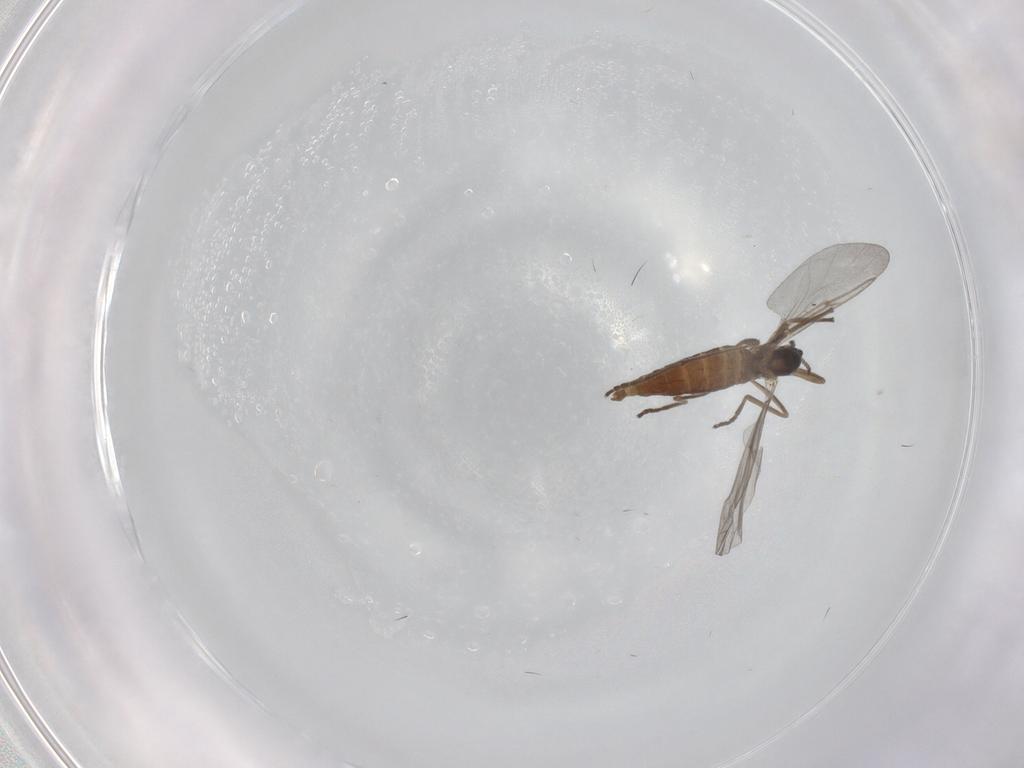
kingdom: Animalia
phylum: Arthropoda
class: Insecta
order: Diptera
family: Cecidomyiidae
